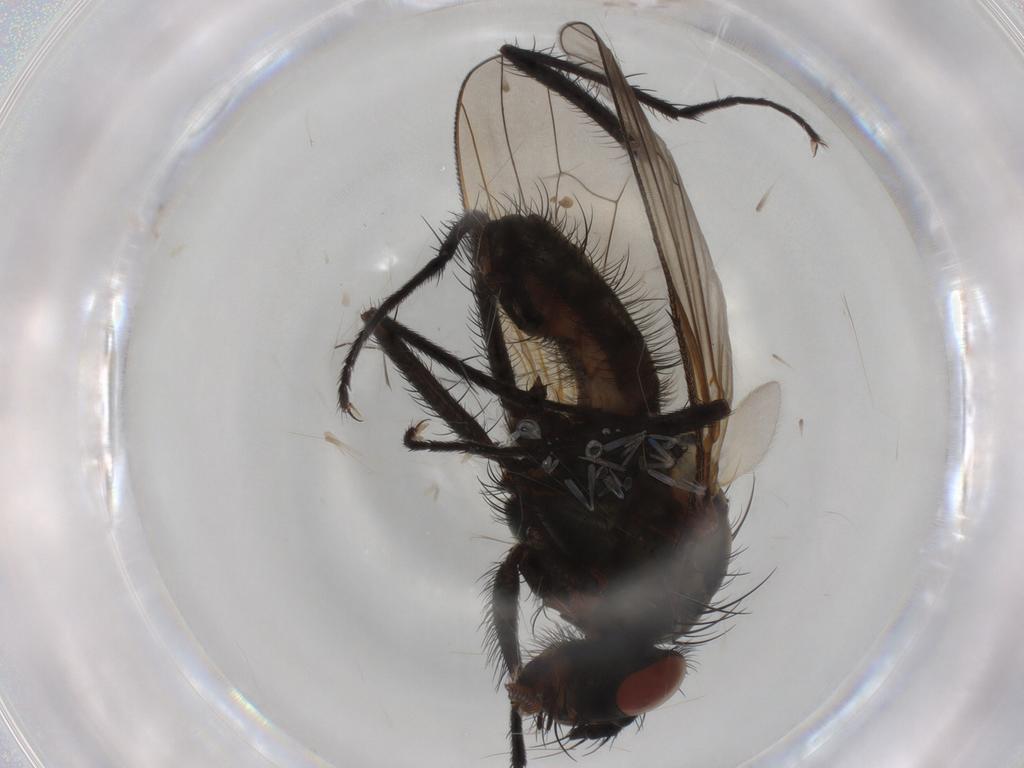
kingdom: Animalia
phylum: Arthropoda
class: Insecta
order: Diptera
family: Anthomyiidae
